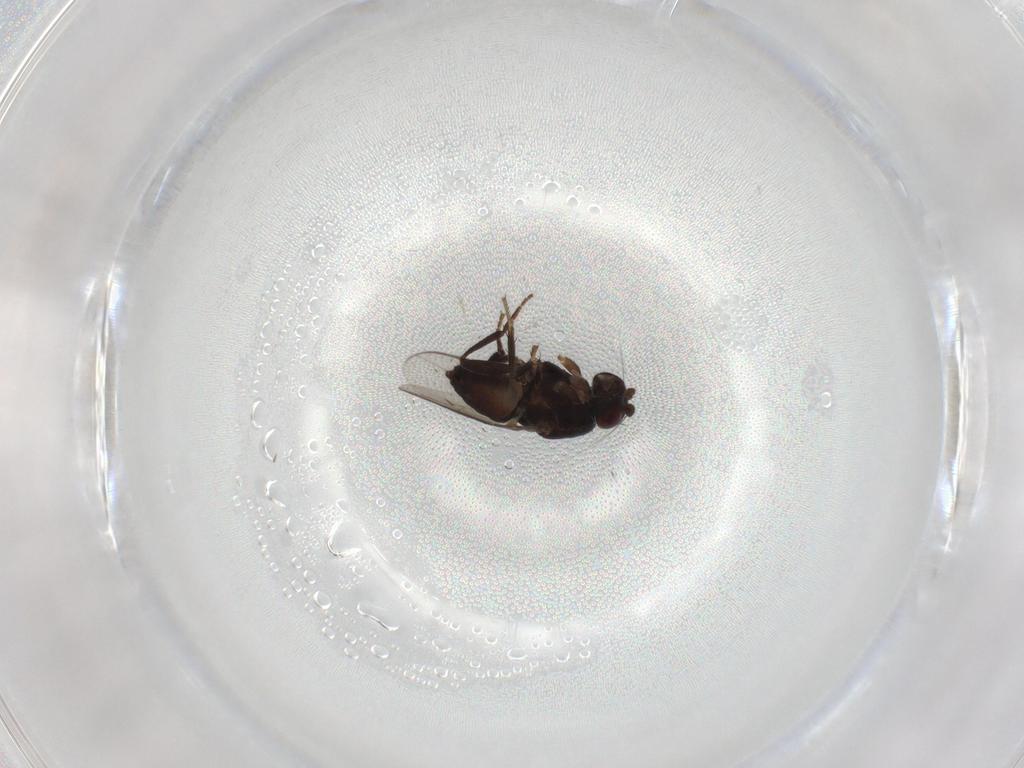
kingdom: Animalia
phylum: Arthropoda
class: Insecta
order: Diptera
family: Sphaeroceridae
